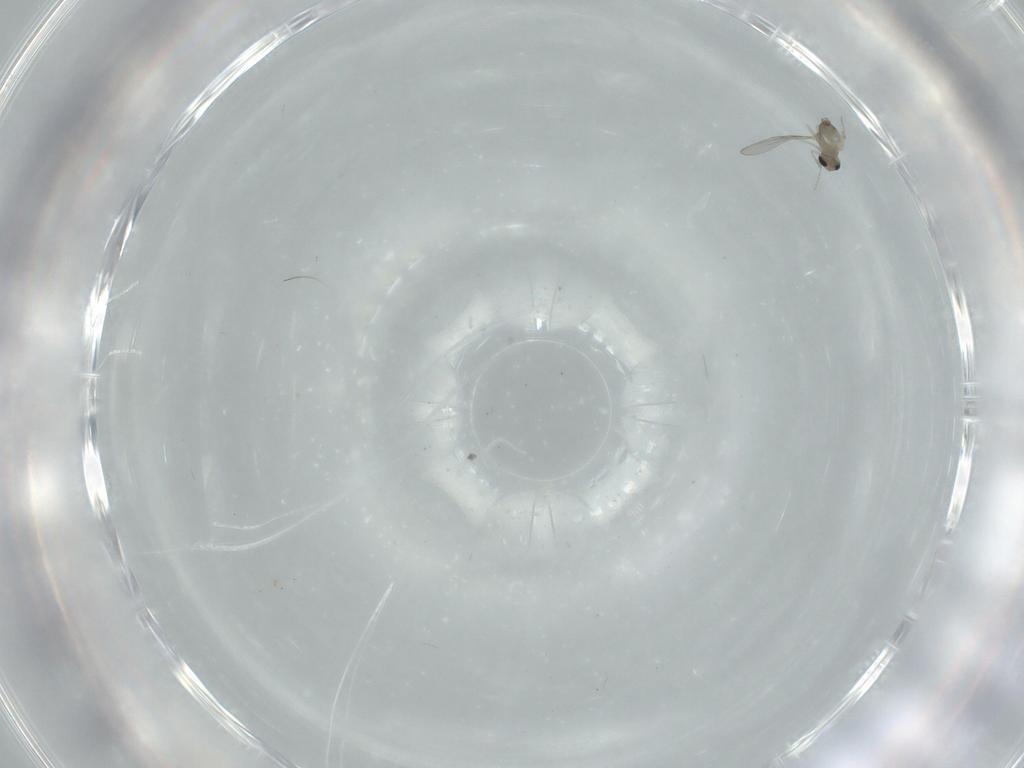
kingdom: Animalia
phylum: Arthropoda
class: Insecta
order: Diptera
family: Cecidomyiidae
